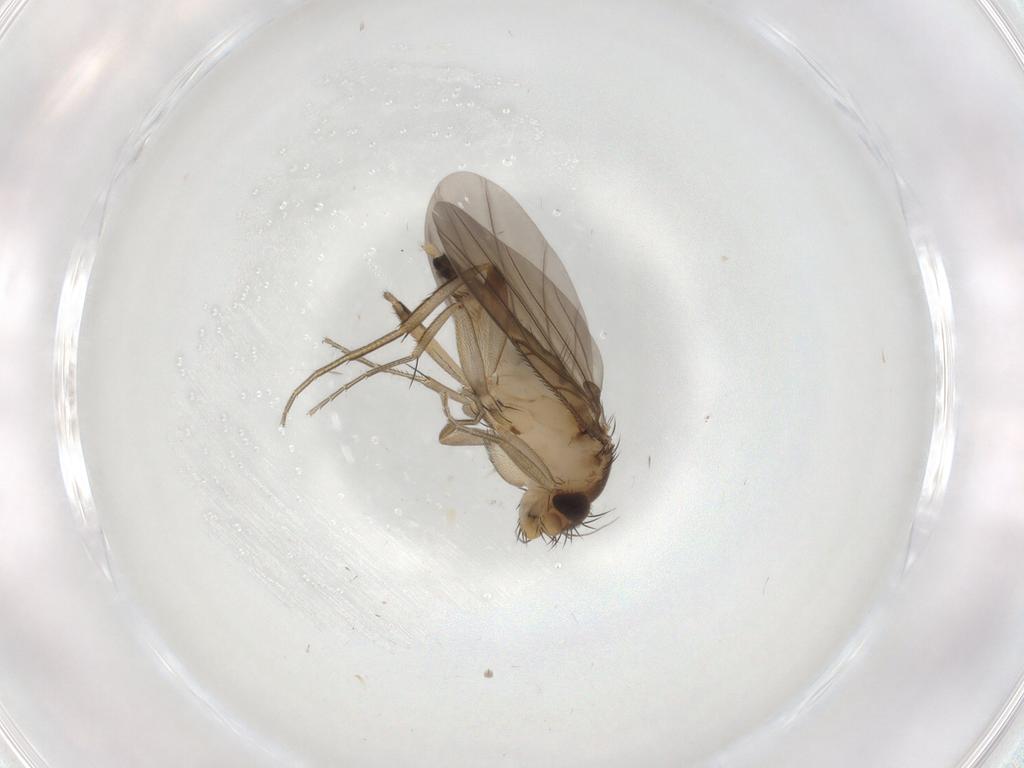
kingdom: Animalia
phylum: Arthropoda
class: Insecta
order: Diptera
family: Phoridae
